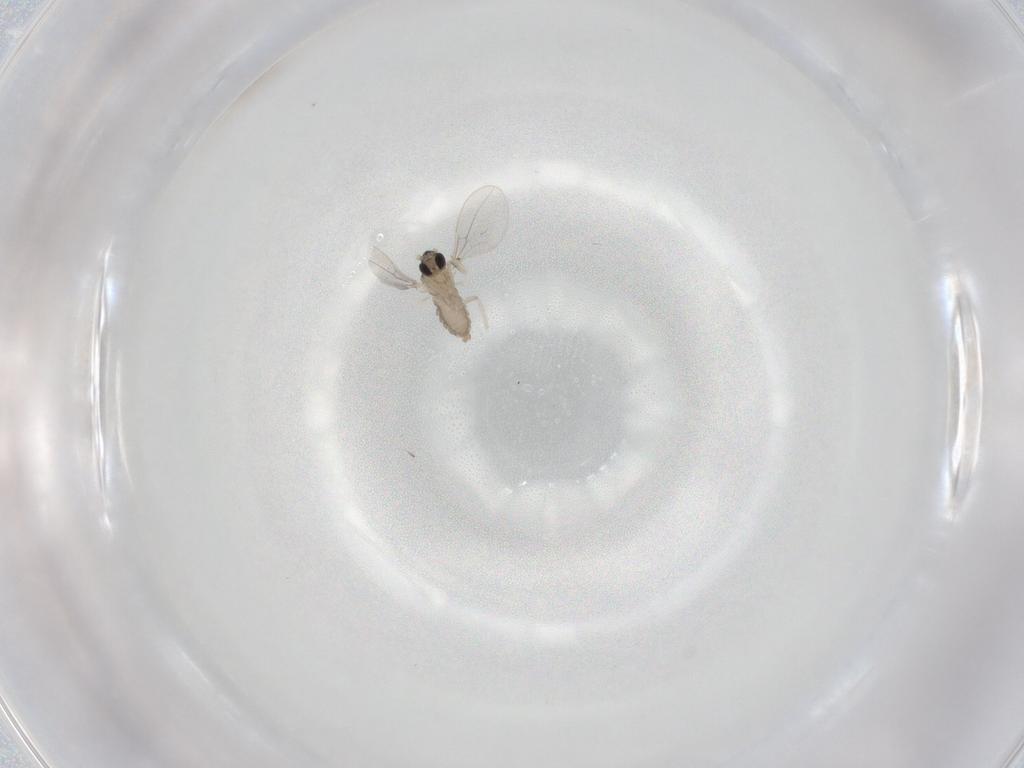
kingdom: Animalia
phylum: Arthropoda
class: Insecta
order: Diptera
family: Cecidomyiidae
